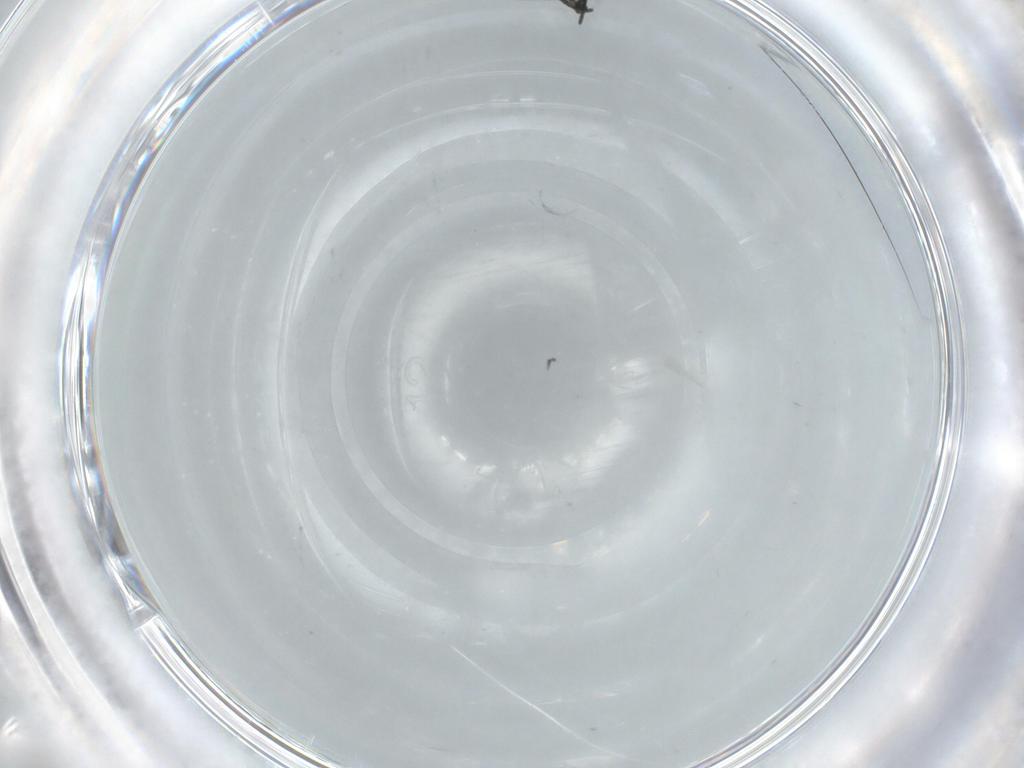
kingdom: Animalia
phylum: Arthropoda
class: Insecta
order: Diptera
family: Sciaridae
